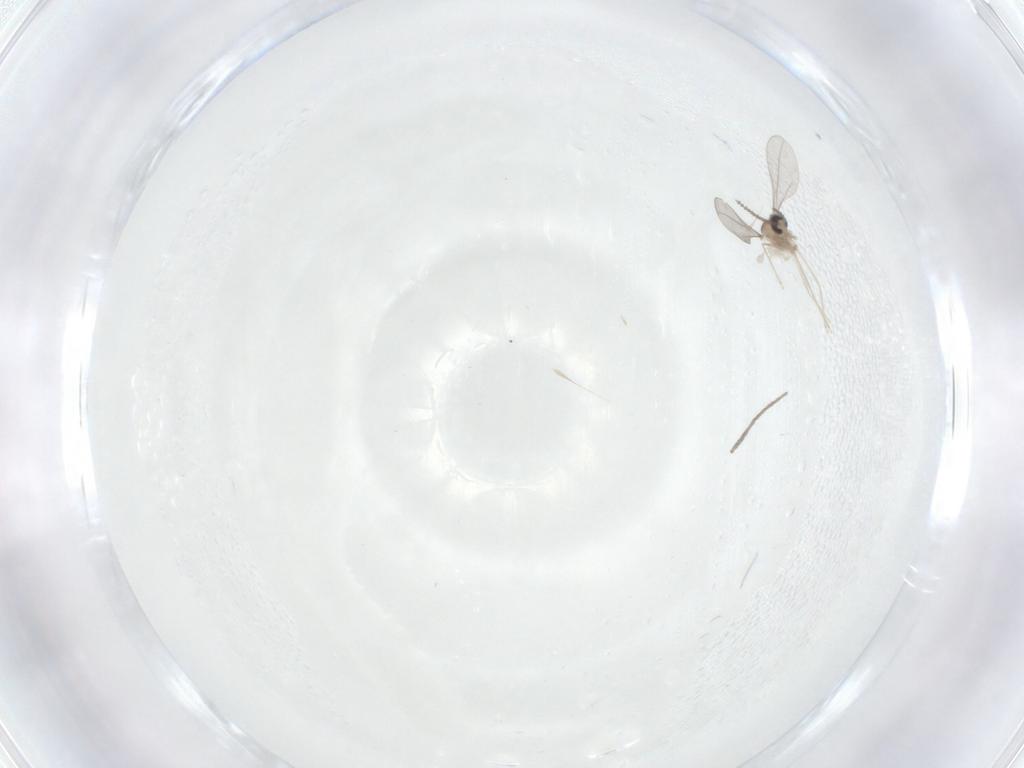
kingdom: Animalia
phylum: Arthropoda
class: Insecta
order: Diptera
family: Psychodidae
